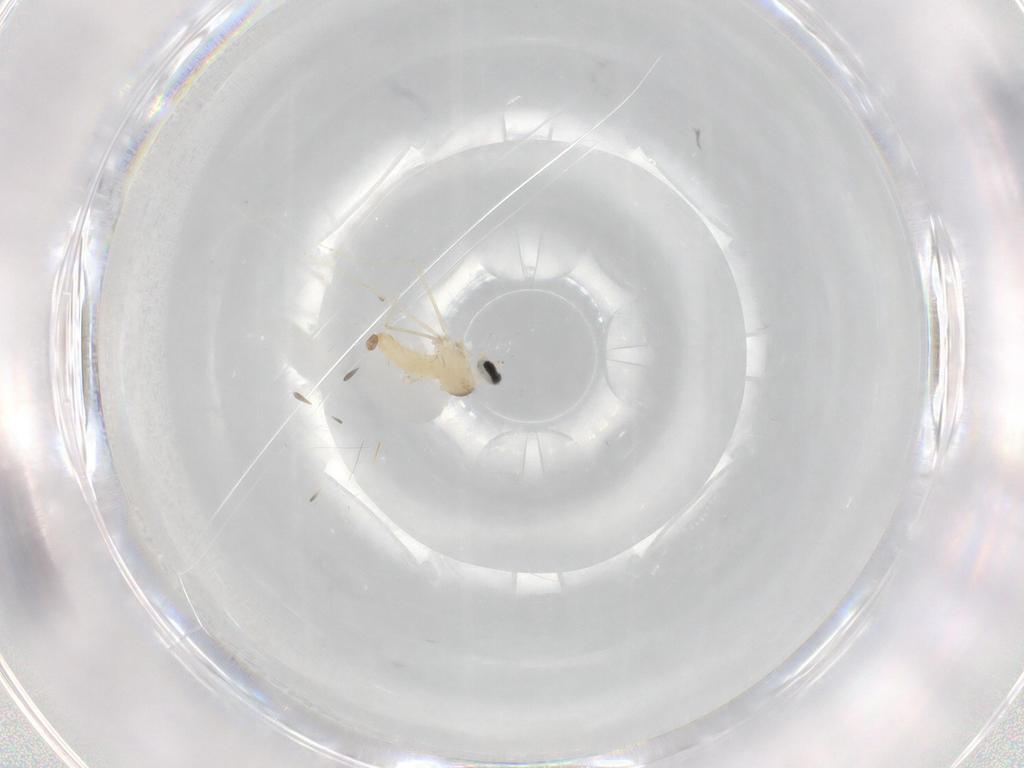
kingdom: Animalia
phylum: Arthropoda
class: Insecta
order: Diptera
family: Cecidomyiidae
